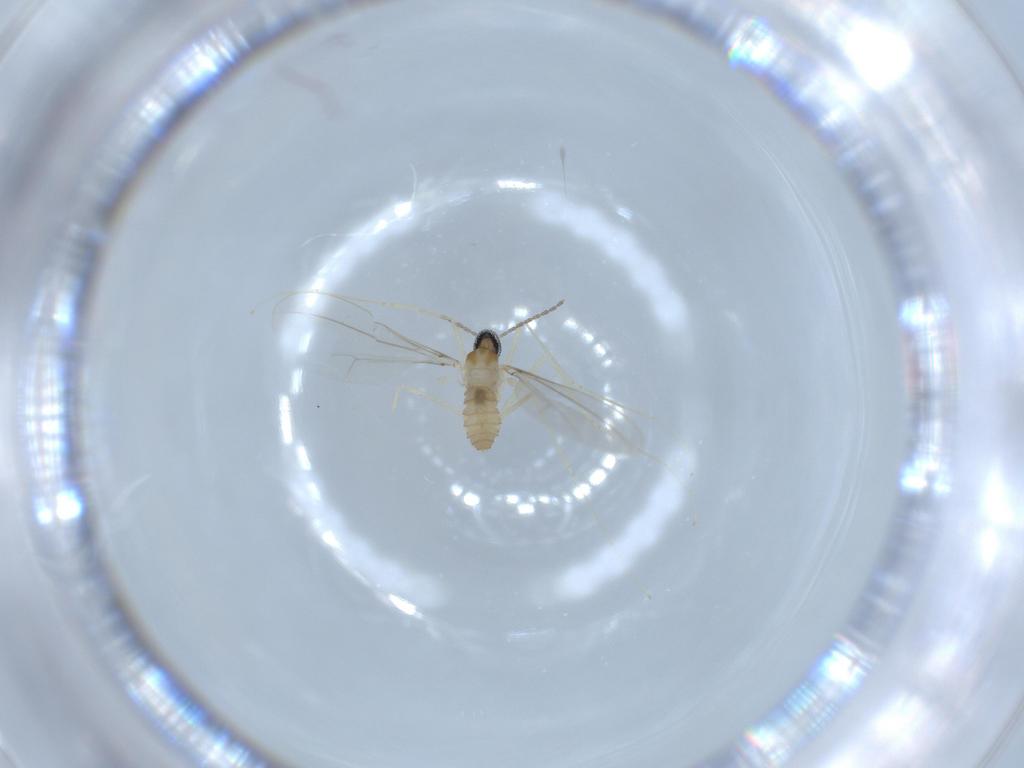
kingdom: Animalia
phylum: Arthropoda
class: Insecta
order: Diptera
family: Cecidomyiidae
